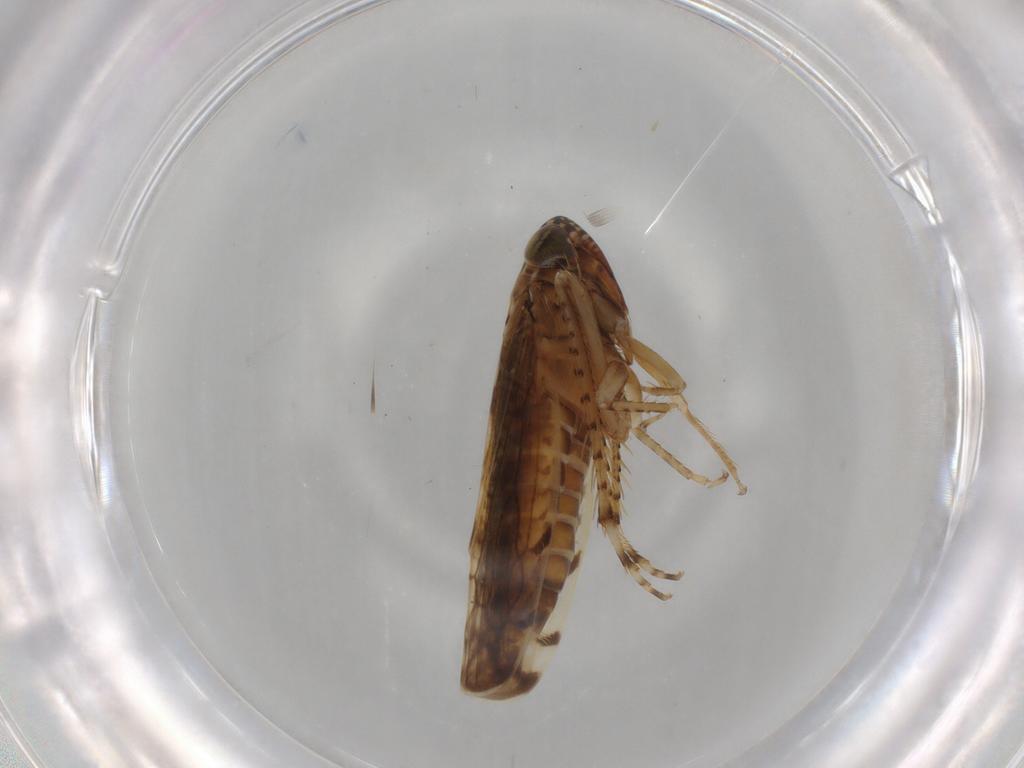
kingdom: Animalia
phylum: Arthropoda
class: Insecta
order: Hemiptera
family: Cicadellidae
